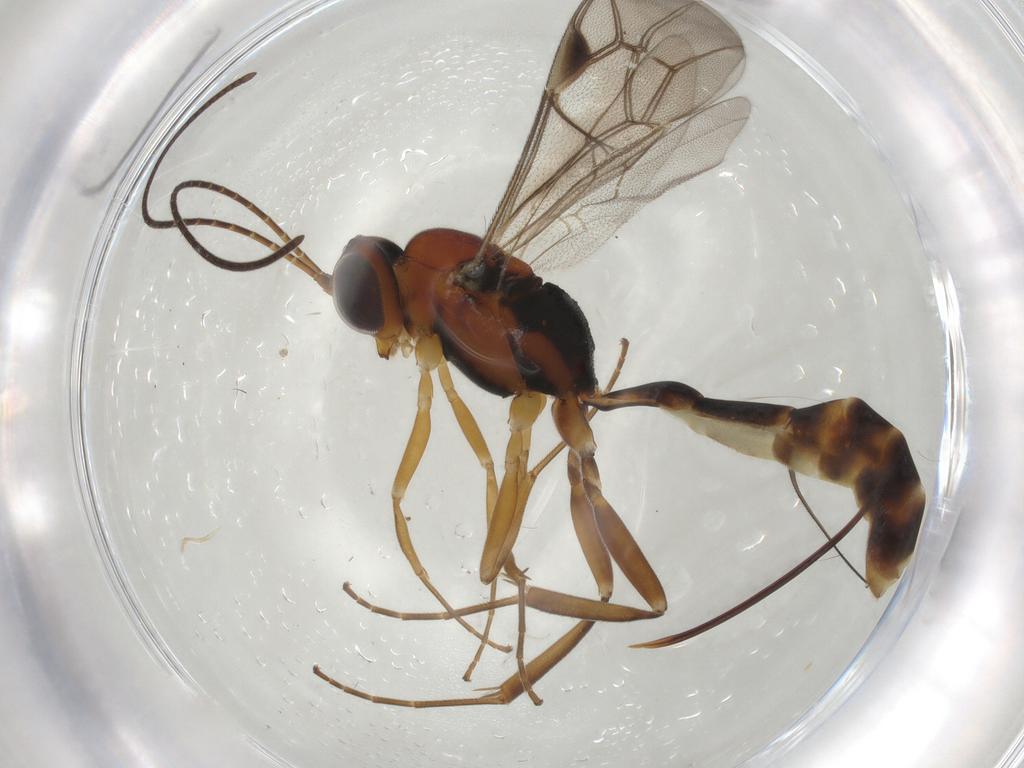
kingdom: Animalia
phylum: Arthropoda
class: Insecta
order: Hymenoptera
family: Ichneumonidae
